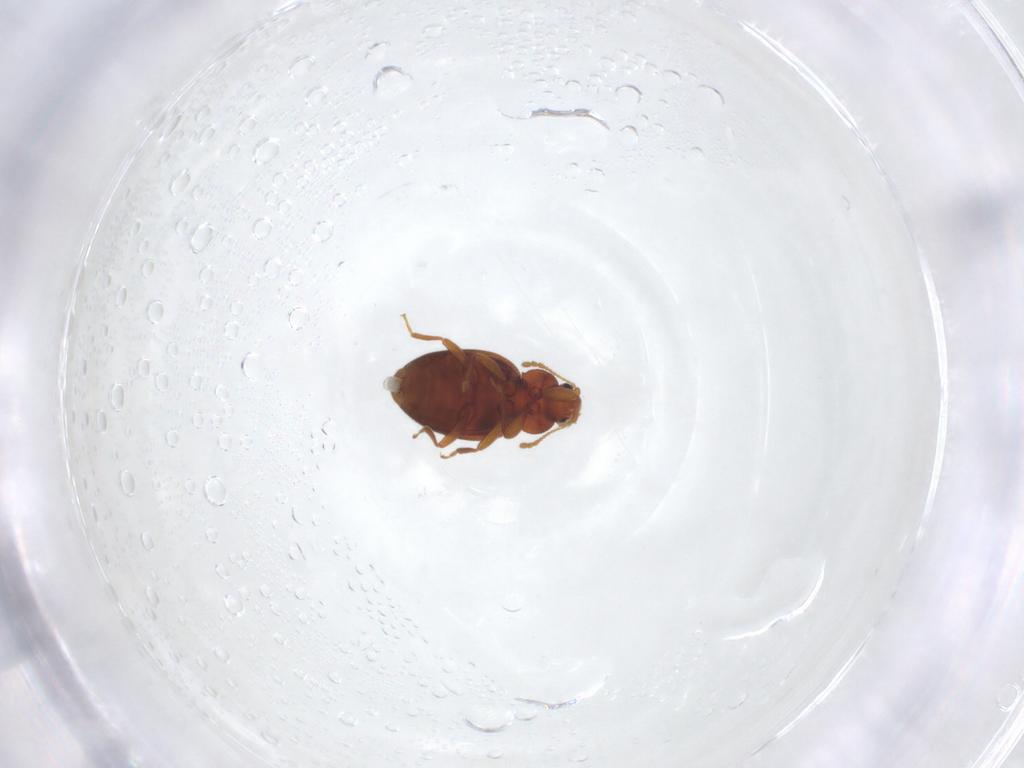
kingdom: Animalia
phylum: Arthropoda
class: Insecta
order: Coleoptera
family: Latridiidae
